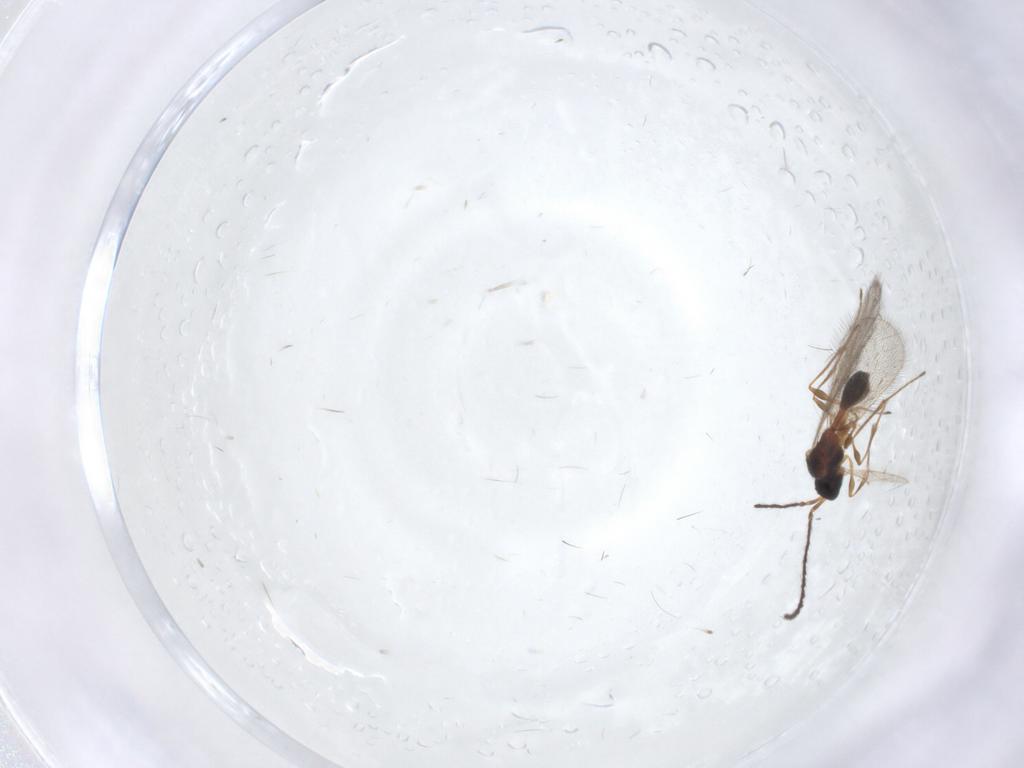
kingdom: Animalia
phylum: Arthropoda
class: Insecta
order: Hymenoptera
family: Diapriidae
